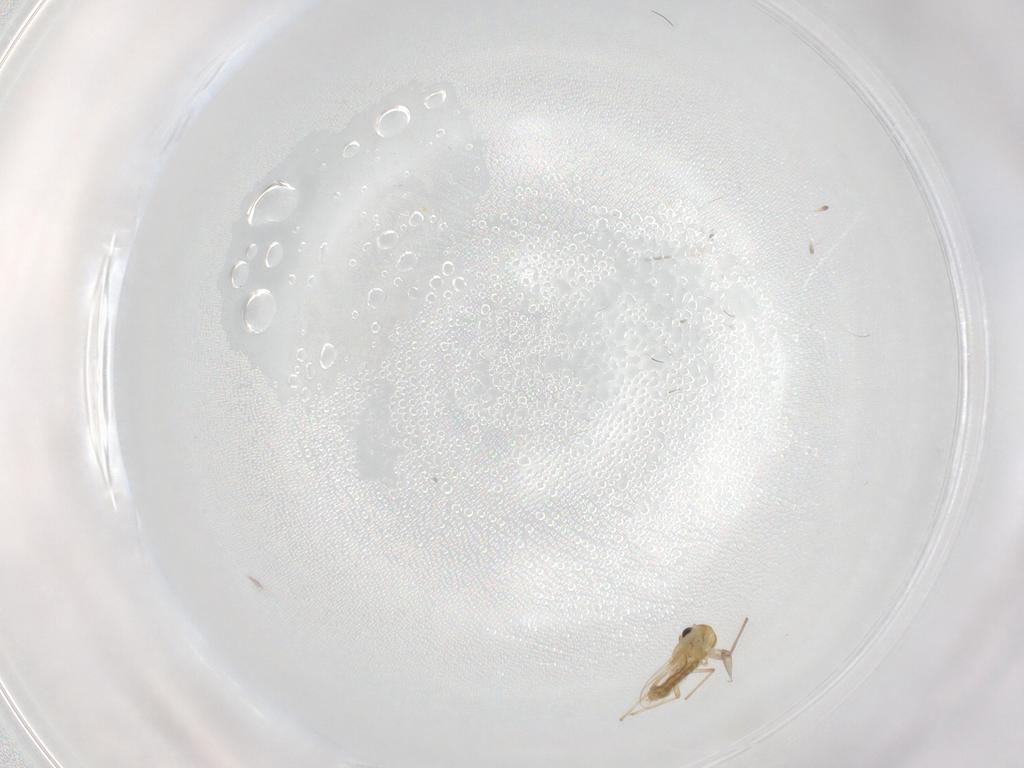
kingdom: Animalia
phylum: Arthropoda
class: Insecta
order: Diptera
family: Chironomidae
